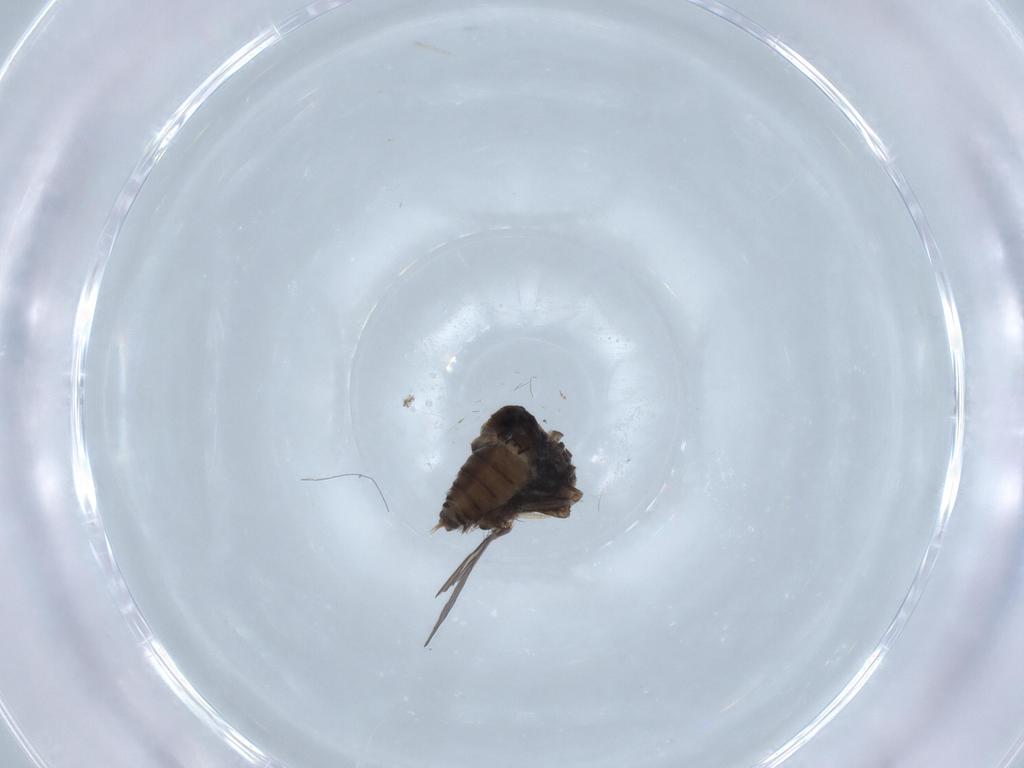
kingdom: Animalia
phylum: Arthropoda
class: Insecta
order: Diptera
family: Psychodidae
